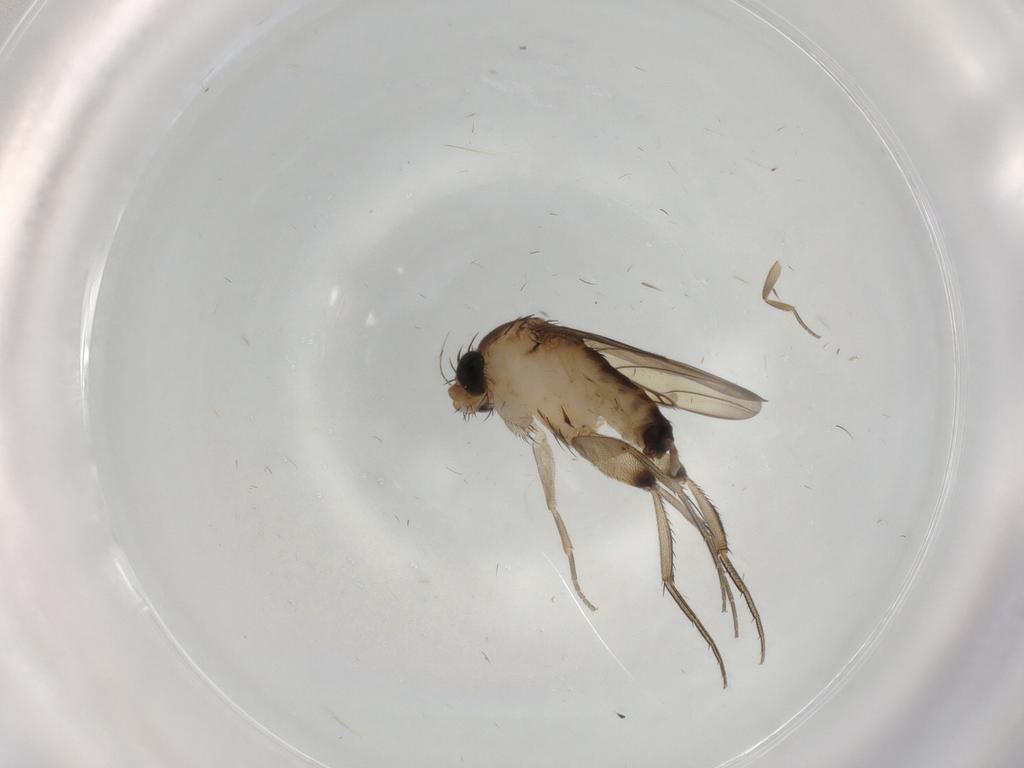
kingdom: Animalia
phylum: Arthropoda
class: Insecta
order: Diptera
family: Phoridae
